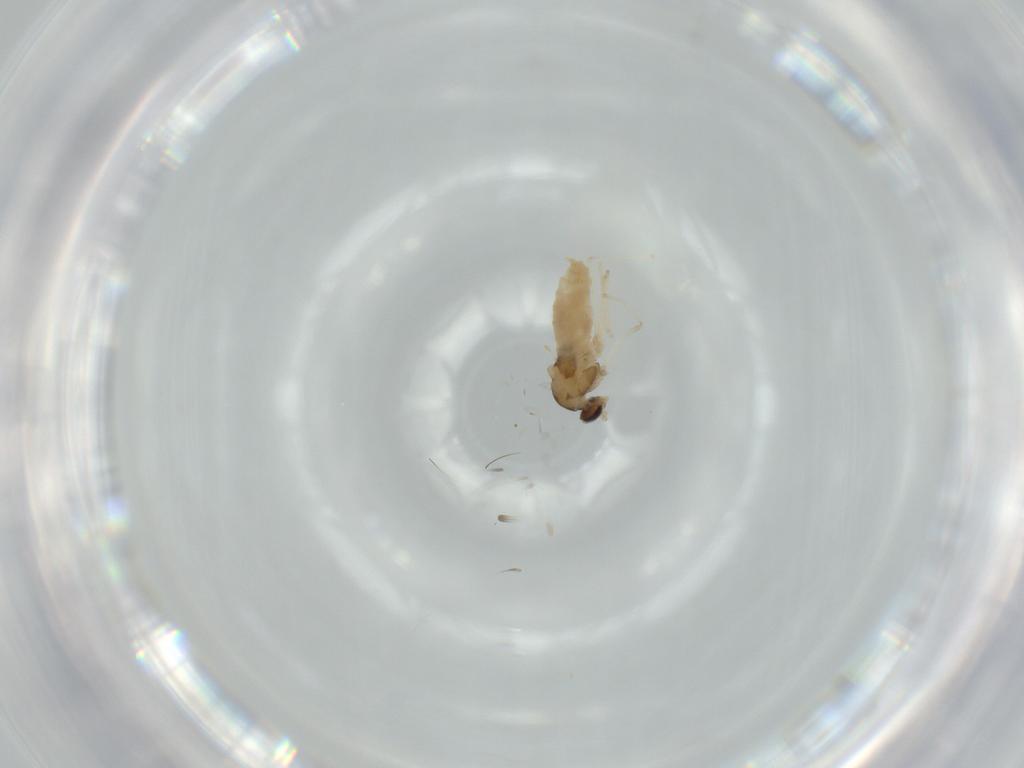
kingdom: Animalia
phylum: Arthropoda
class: Insecta
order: Diptera
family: Chironomidae
